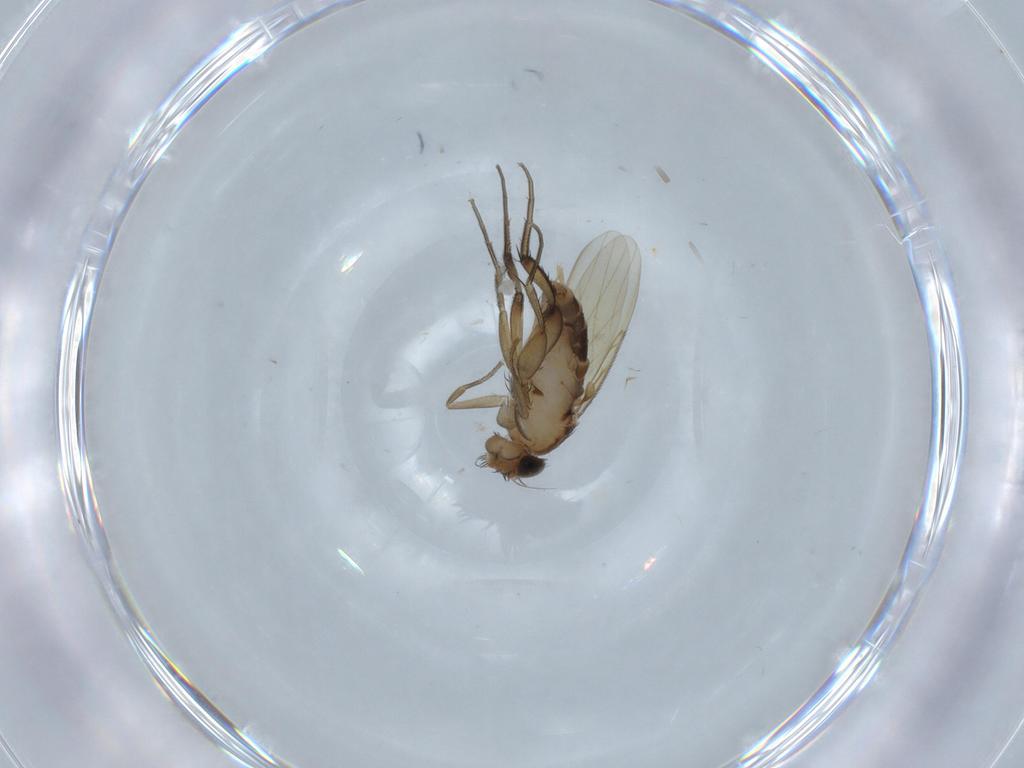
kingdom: Animalia
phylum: Arthropoda
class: Insecta
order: Diptera
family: Phoridae
